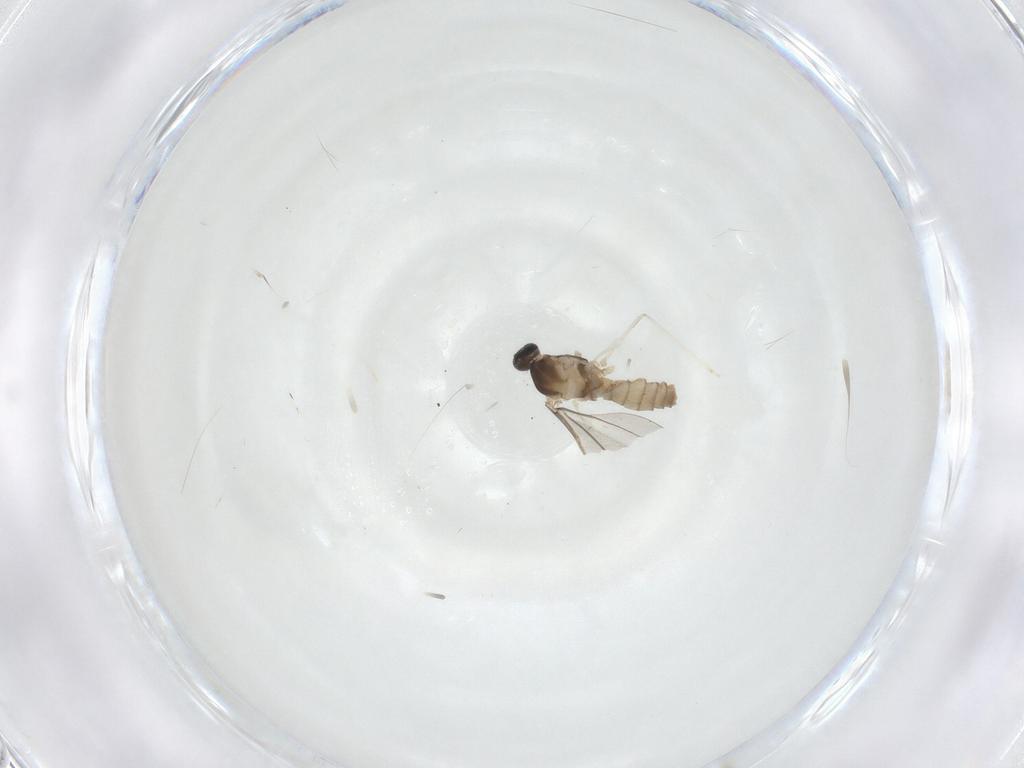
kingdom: Animalia
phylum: Arthropoda
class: Insecta
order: Diptera
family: Cecidomyiidae
